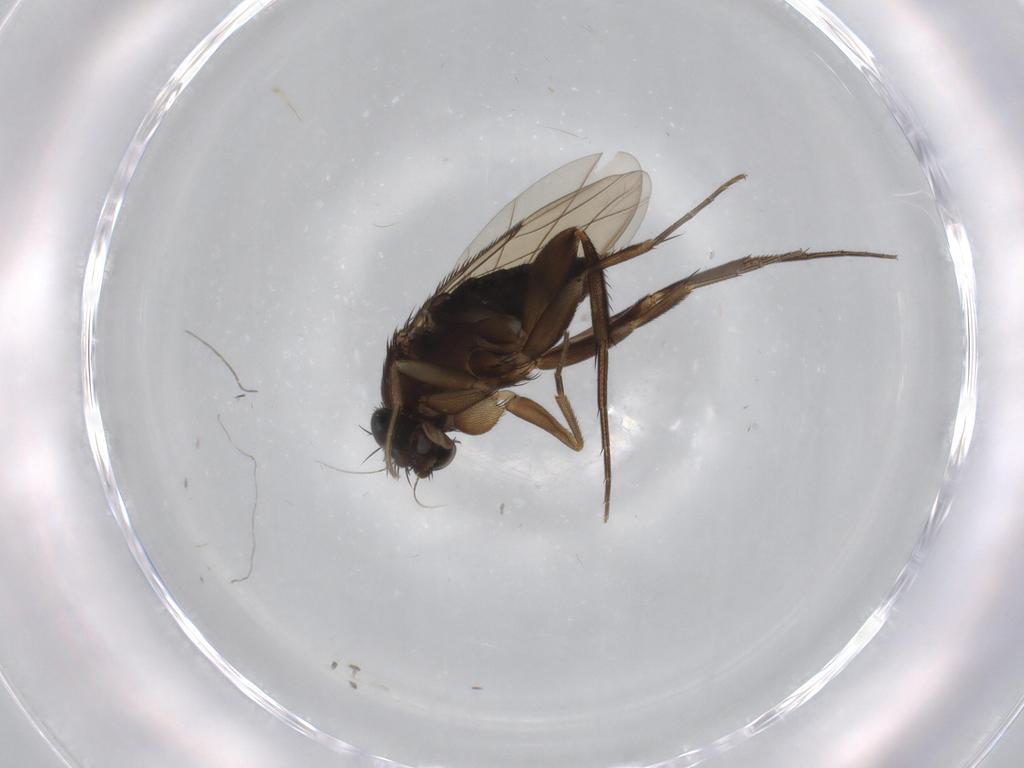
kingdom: Animalia
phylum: Arthropoda
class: Insecta
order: Diptera
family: Phoridae
